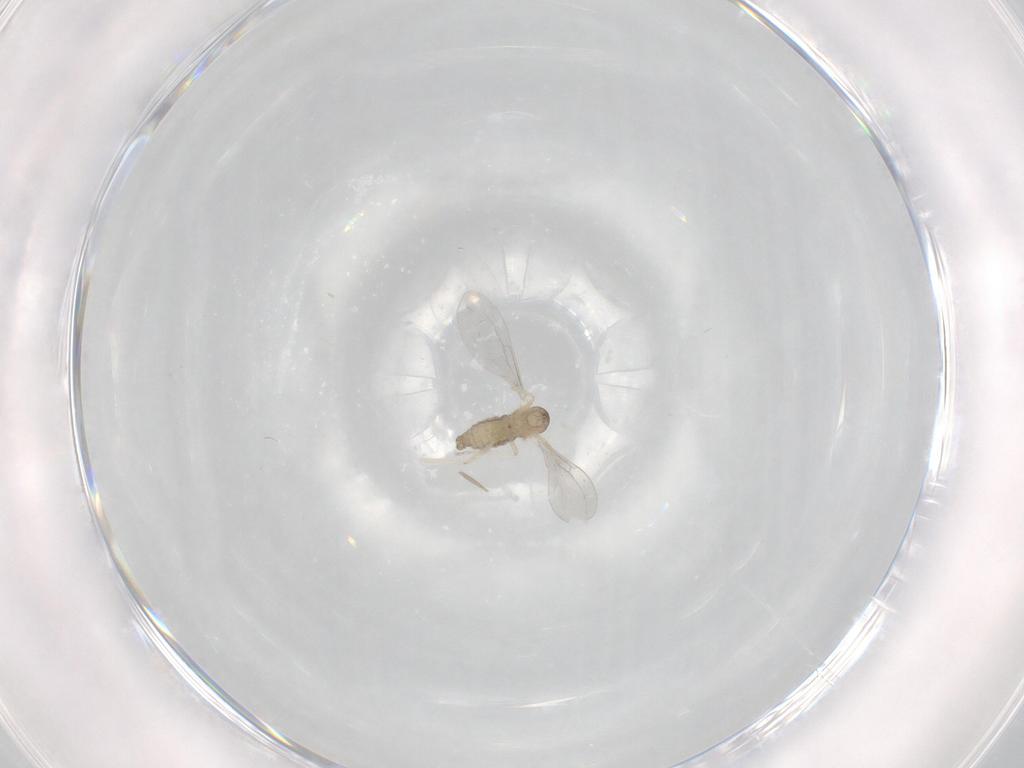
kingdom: Animalia
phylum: Arthropoda
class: Insecta
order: Diptera
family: Cecidomyiidae
